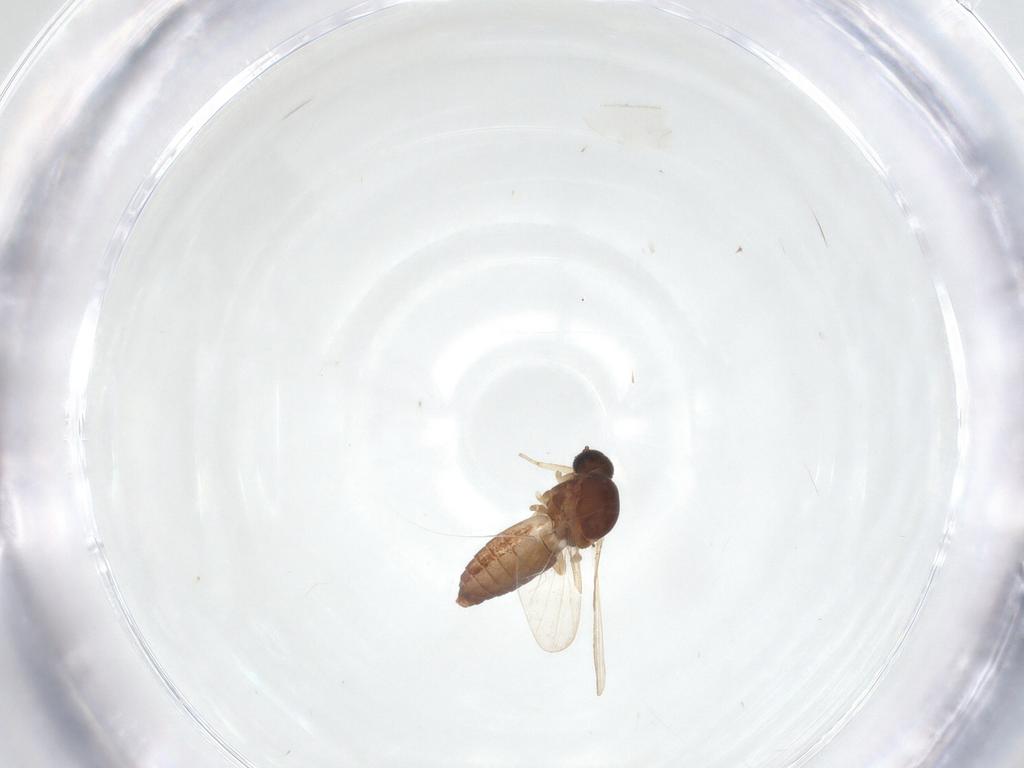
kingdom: Animalia
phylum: Arthropoda
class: Insecta
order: Diptera
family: Ceratopogonidae
